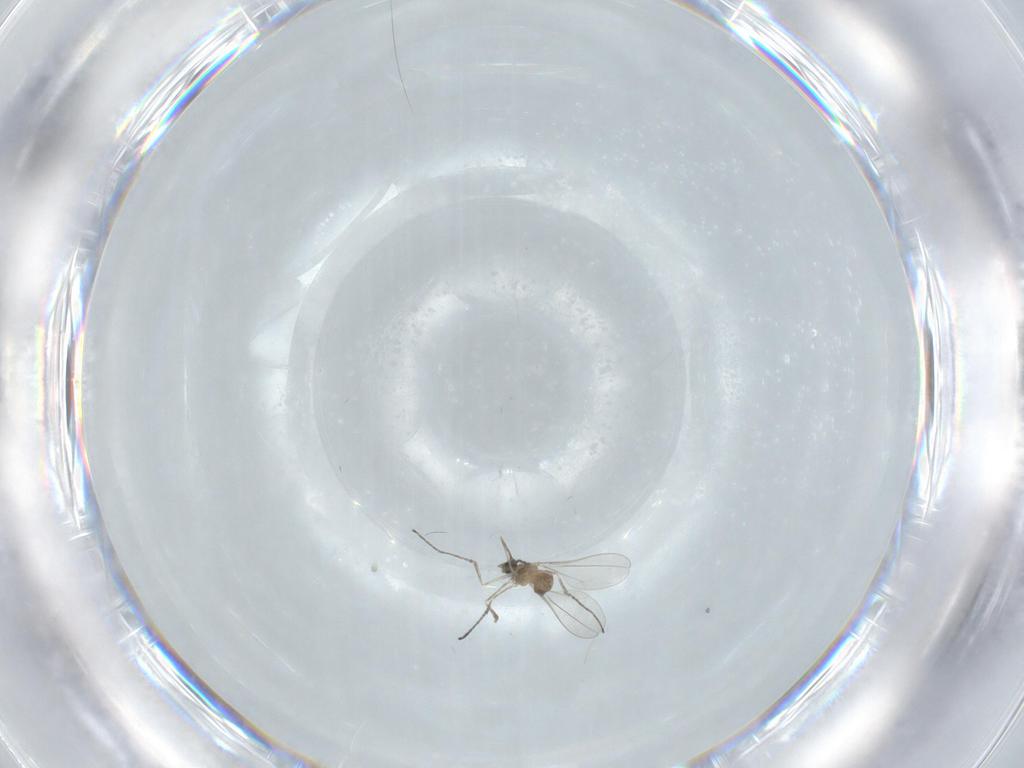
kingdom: Animalia
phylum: Arthropoda
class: Insecta
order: Diptera
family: Cecidomyiidae
